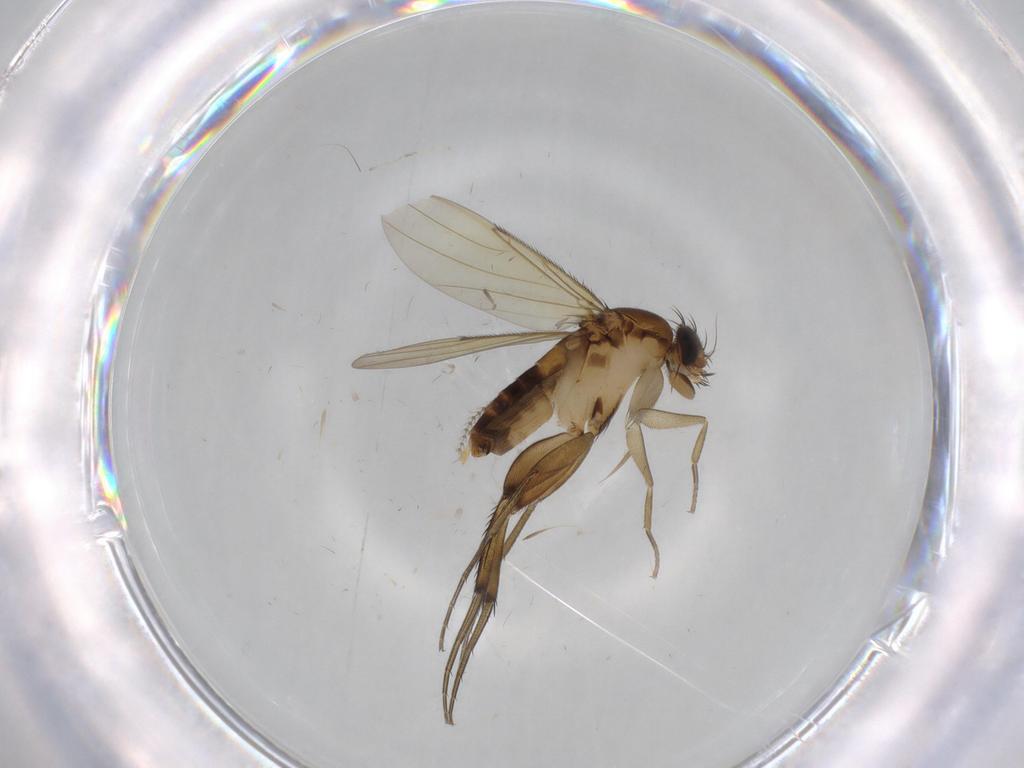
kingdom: Animalia
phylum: Arthropoda
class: Insecta
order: Diptera
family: Phoridae
